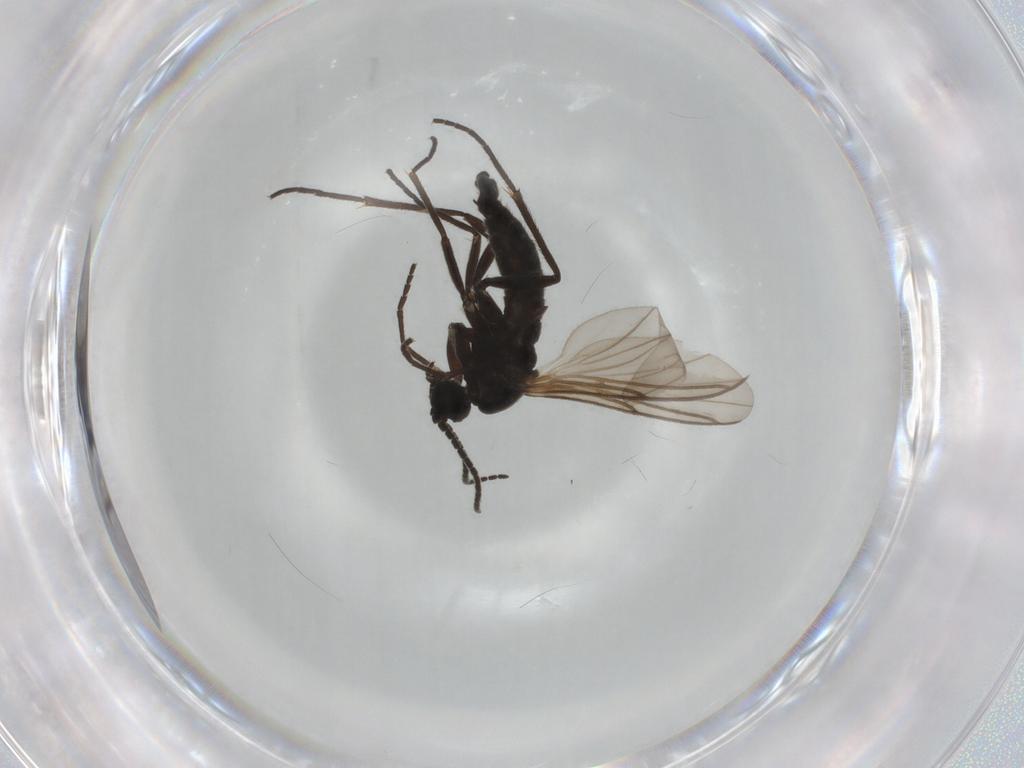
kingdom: Animalia
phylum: Arthropoda
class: Insecta
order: Diptera
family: Sciaridae
